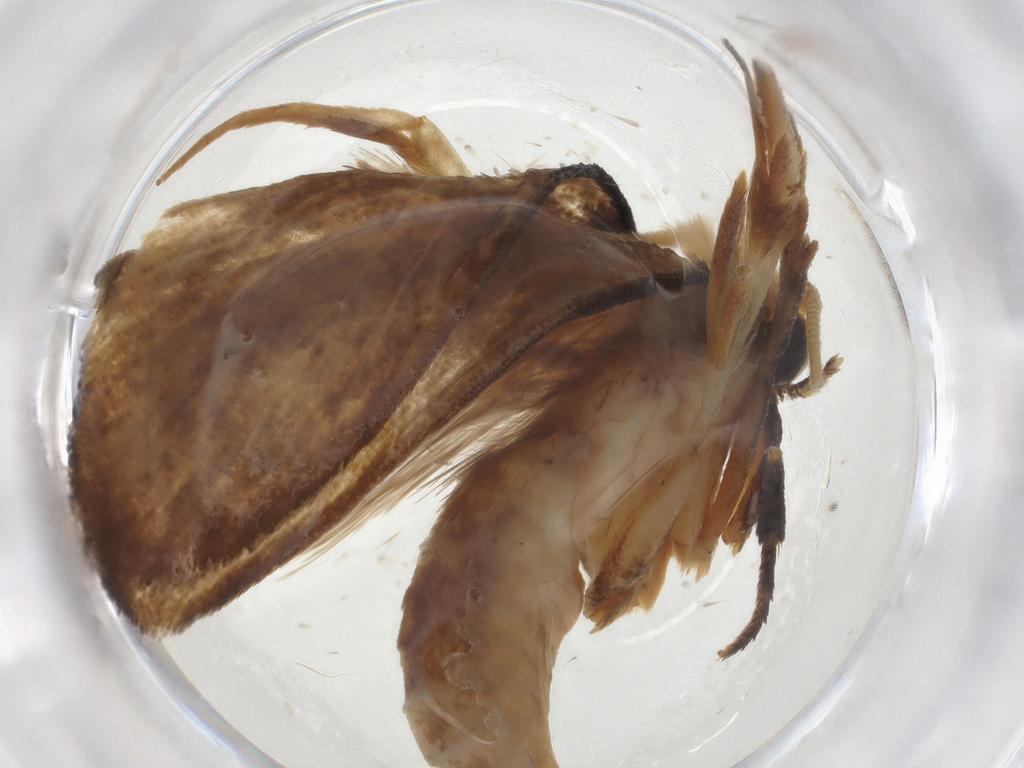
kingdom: Animalia
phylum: Arthropoda
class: Insecta
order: Lepidoptera
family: Tineidae
